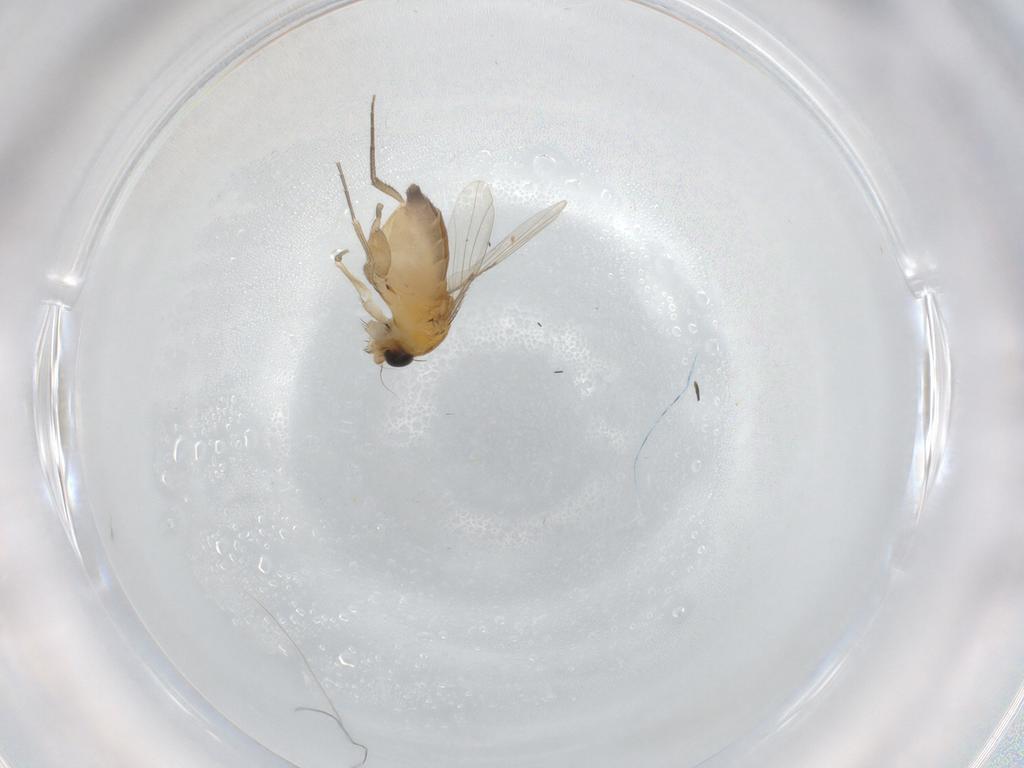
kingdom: Animalia
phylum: Arthropoda
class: Insecta
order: Diptera
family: Phoridae
